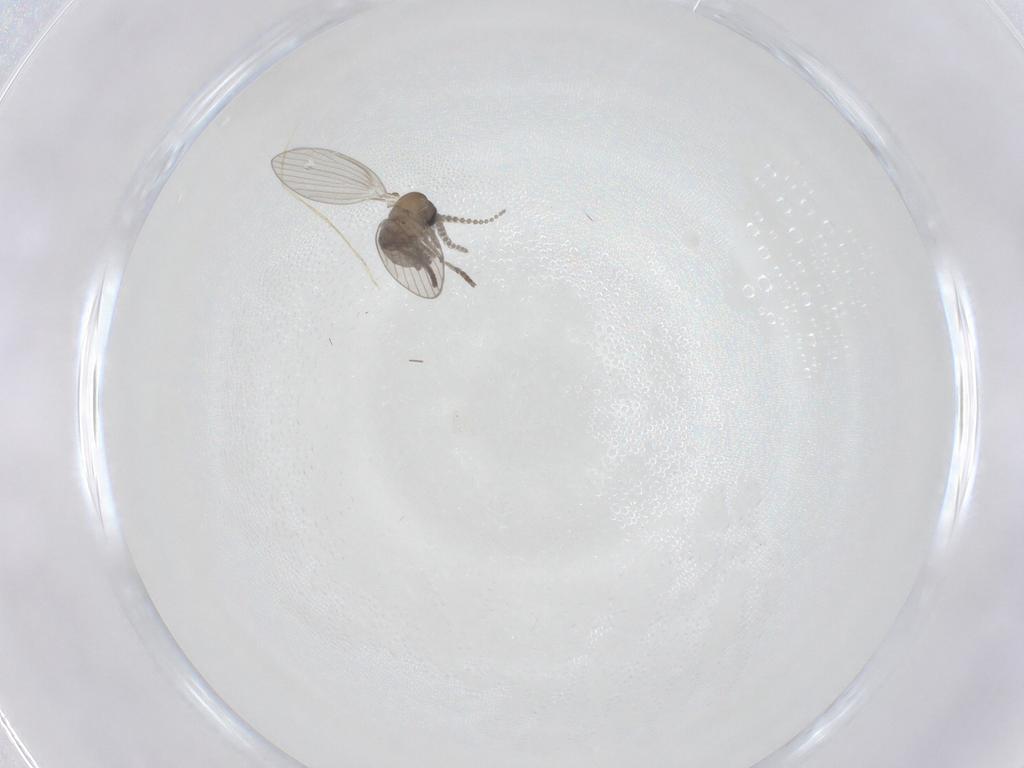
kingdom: Animalia
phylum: Arthropoda
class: Insecta
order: Diptera
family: Psychodidae
